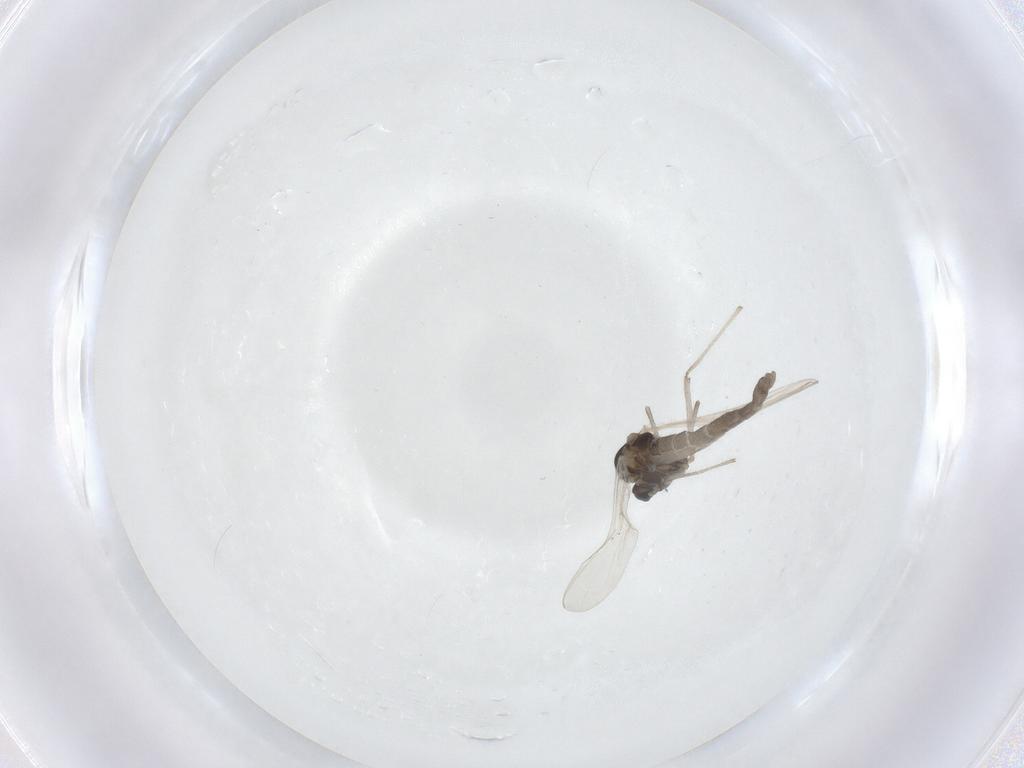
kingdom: Animalia
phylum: Arthropoda
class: Insecta
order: Diptera
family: Chironomidae
